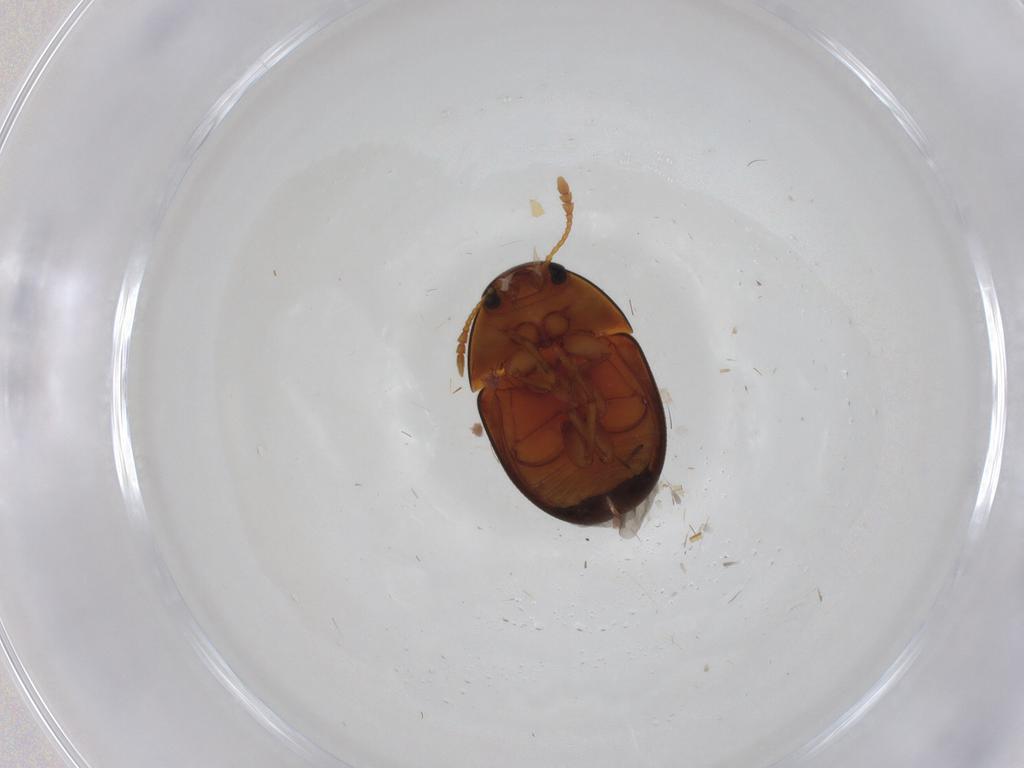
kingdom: Animalia
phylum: Arthropoda
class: Insecta
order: Coleoptera
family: Phalacridae
